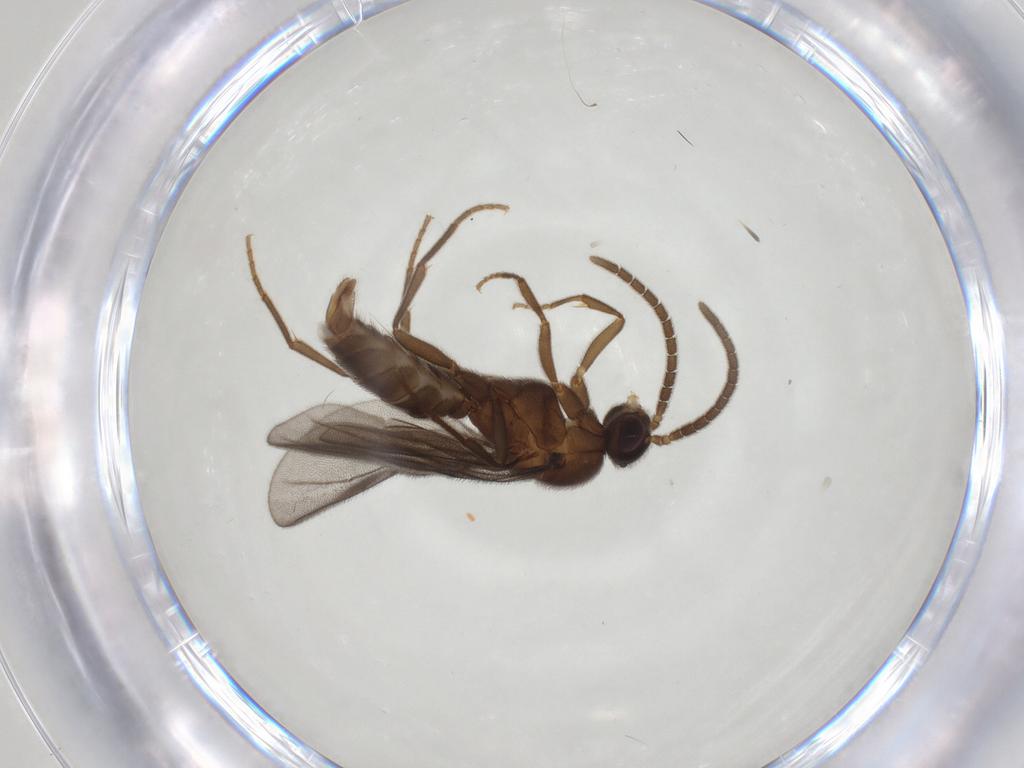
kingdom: Animalia
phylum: Arthropoda
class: Insecta
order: Hymenoptera
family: Formicidae
